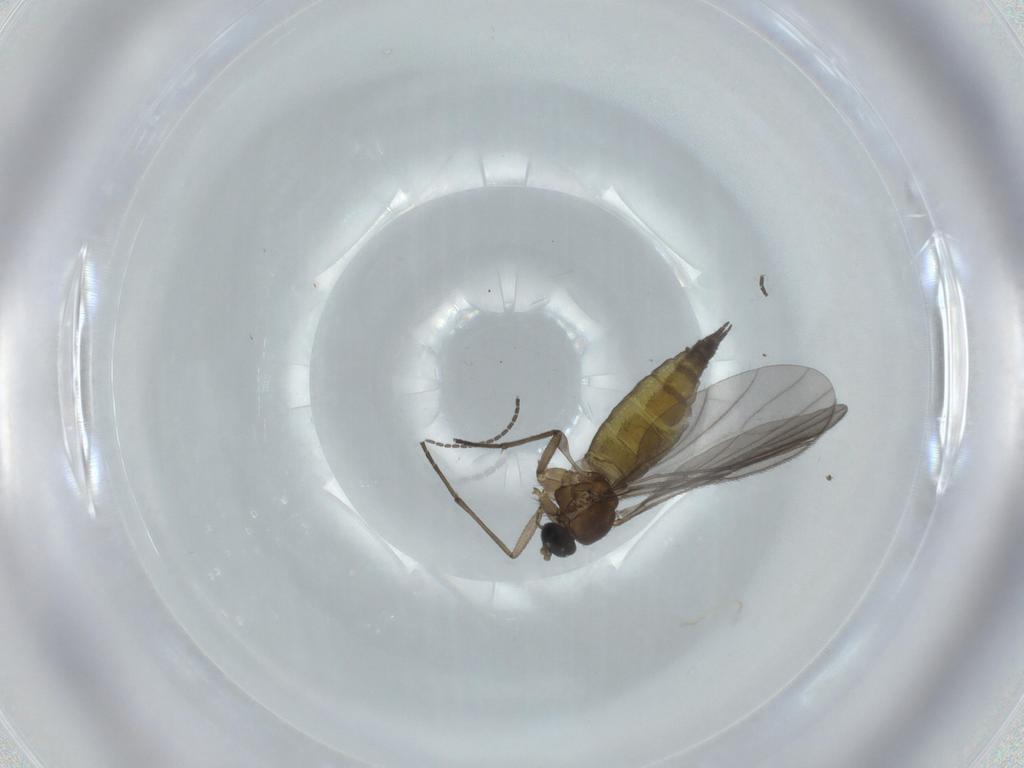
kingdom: Animalia
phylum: Arthropoda
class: Insecta
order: Diptera
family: Sciaridae
